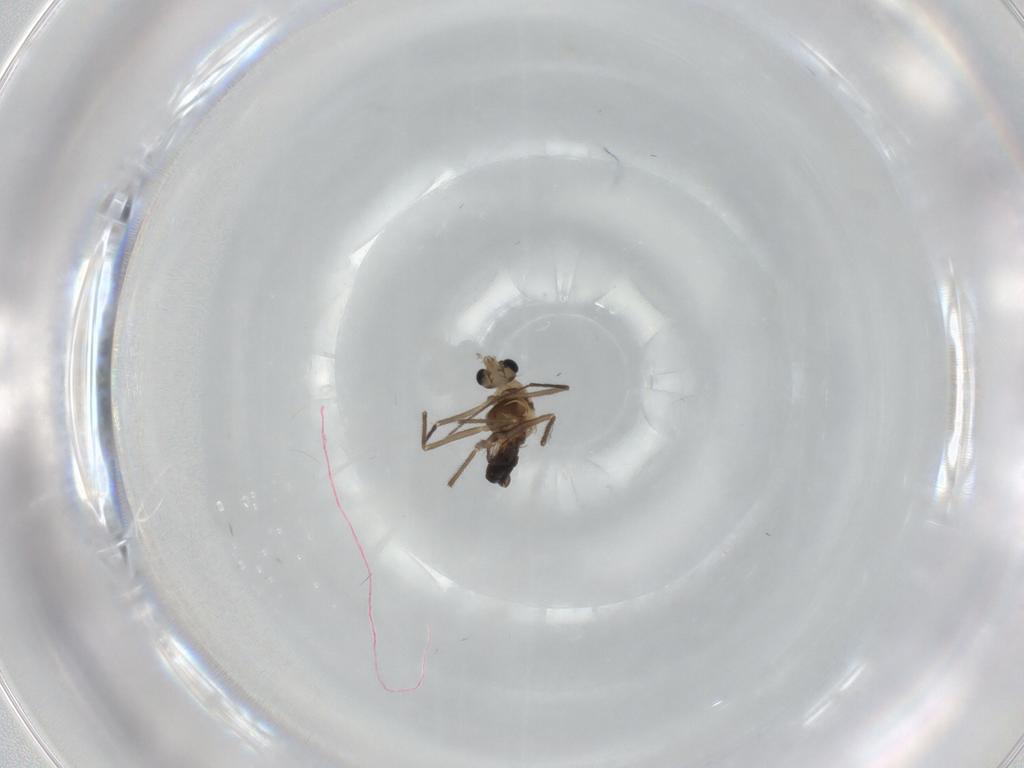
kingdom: Animalia
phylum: Arthropoda
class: Insecta
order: Diptera
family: Chironomidae
